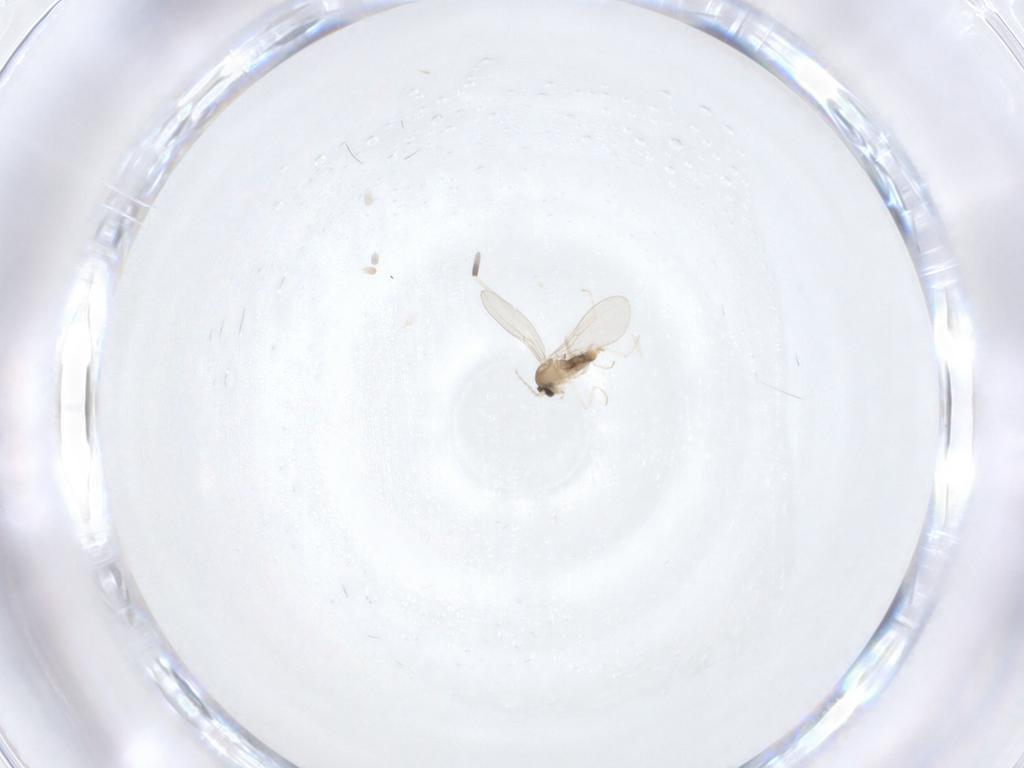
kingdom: Animalia
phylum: Arthropoda
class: Insecta
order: Diptera
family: Cecidomyiidae
